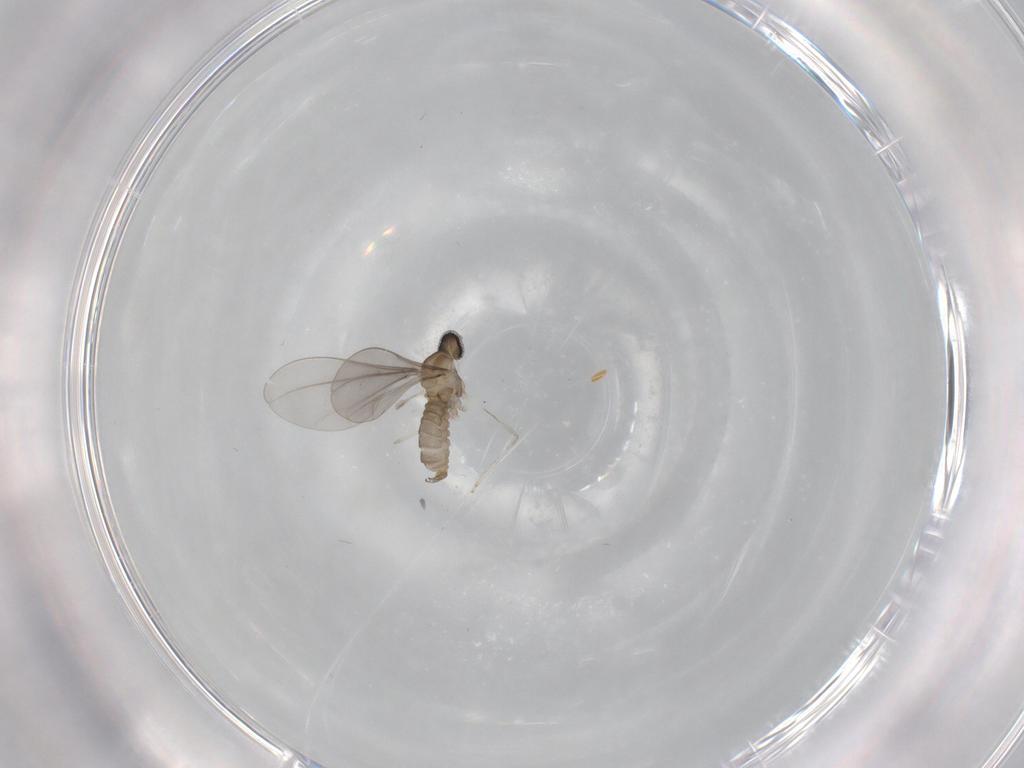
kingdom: Animalia
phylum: Arthropoda
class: Insecta
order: Diptera
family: Cecidomyiidae
